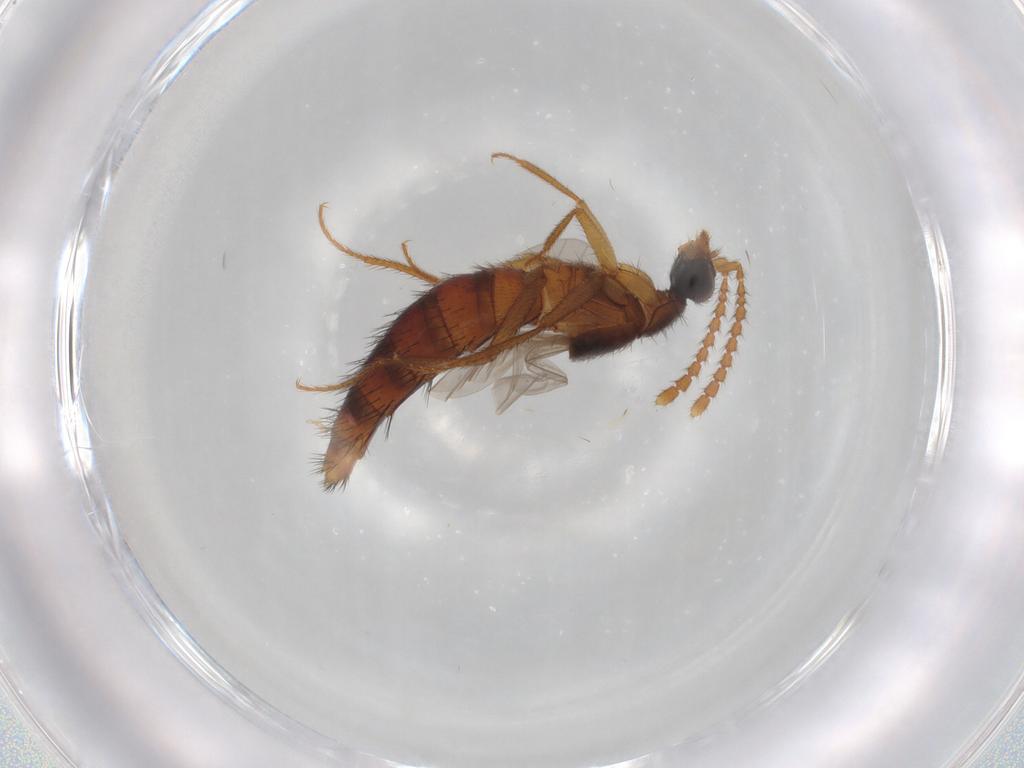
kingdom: Animalia
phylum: Arthropoda
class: Insecta
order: Coleoptera
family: Staphylinidae
